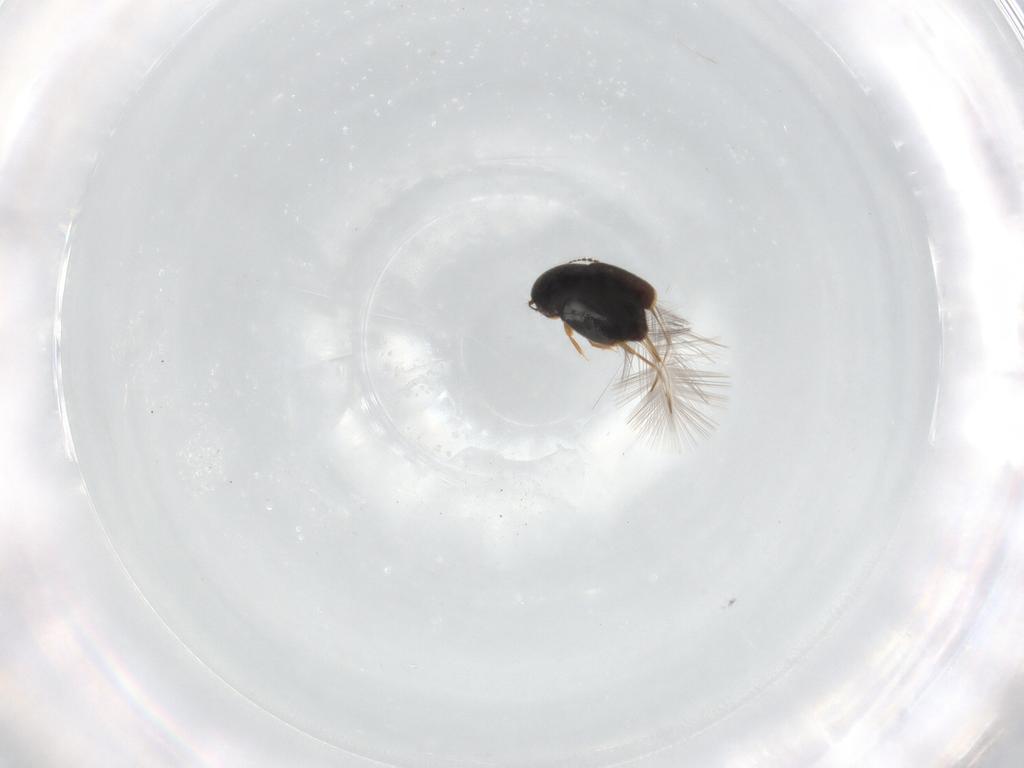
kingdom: Animalia
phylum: Arthropoda
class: Insecta
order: Coleoptera
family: Ptiliidae
